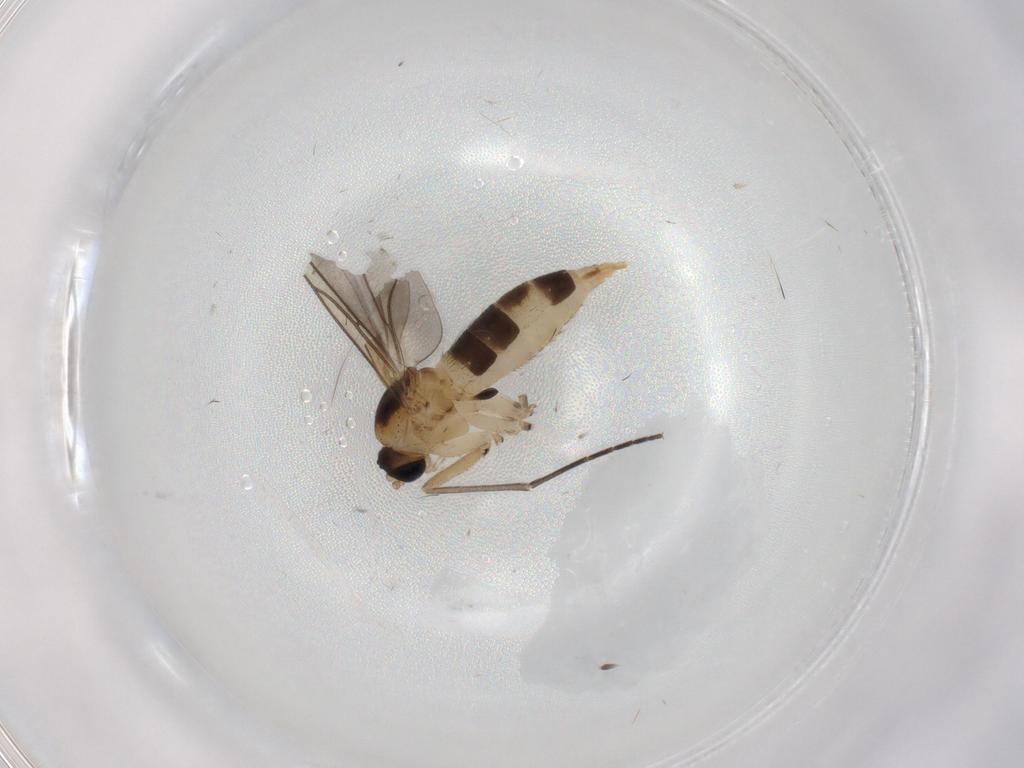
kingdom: Animalia
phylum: Arthropoda
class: Insecta
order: Diptera
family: Sciaridae
